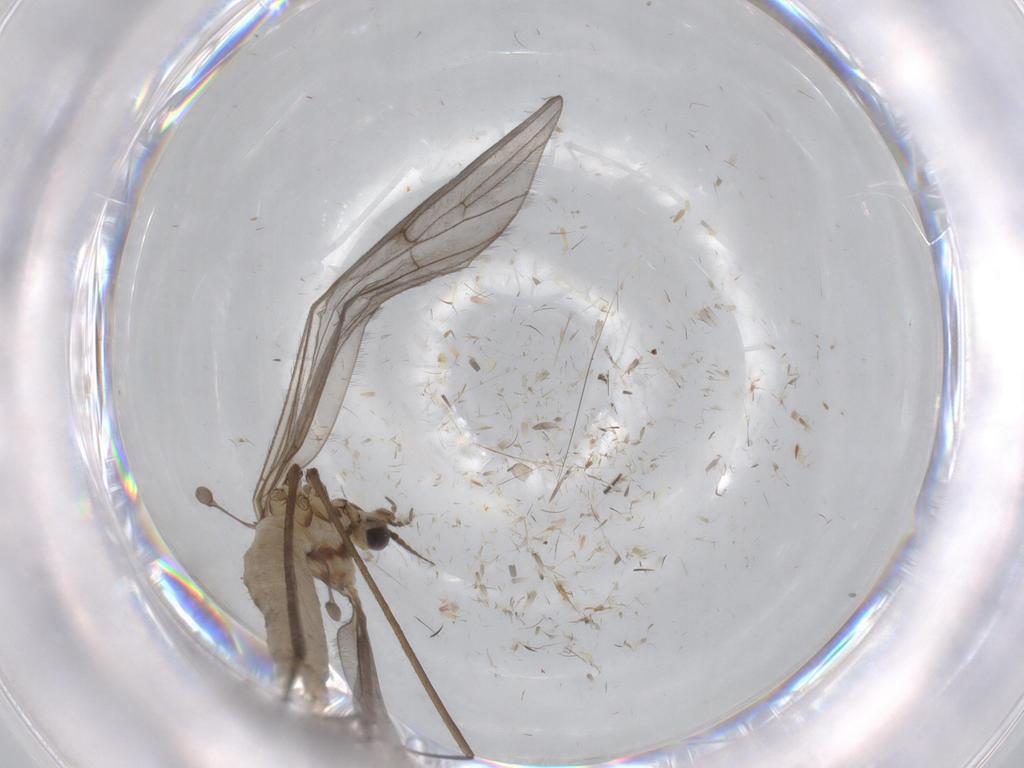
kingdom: Animalia
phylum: Arthropoda
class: Insecta
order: Diptera
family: Limoniidae
